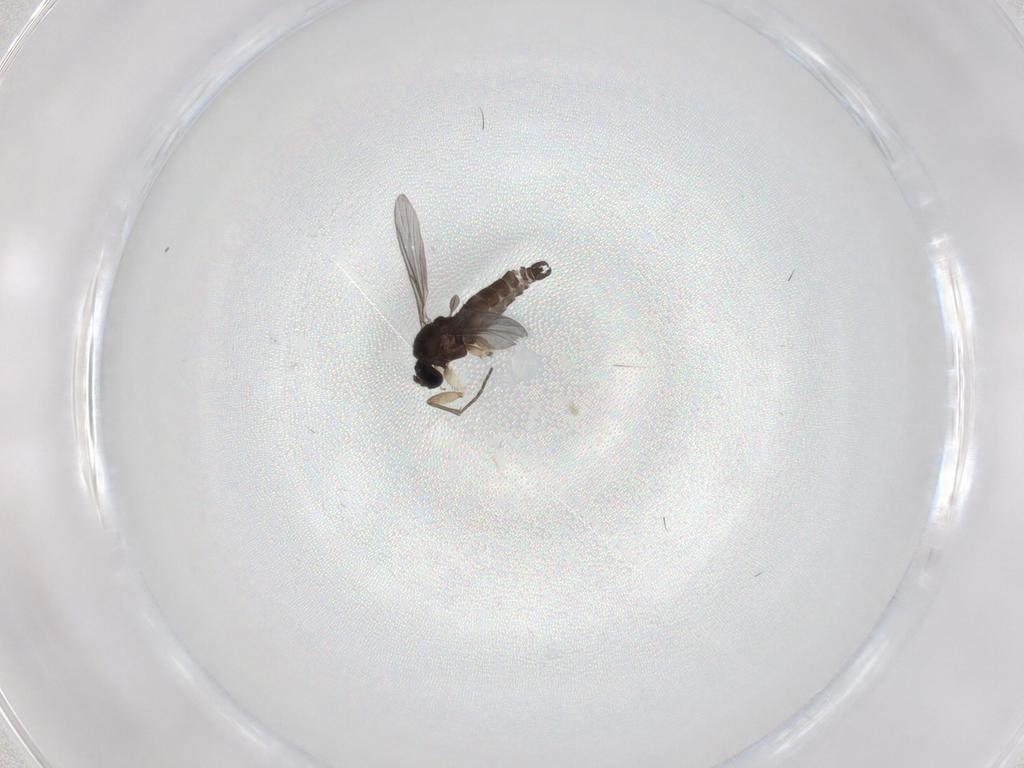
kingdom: Animalia
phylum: Arthropoda
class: Insecta
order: Diptera
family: Sciaridae
